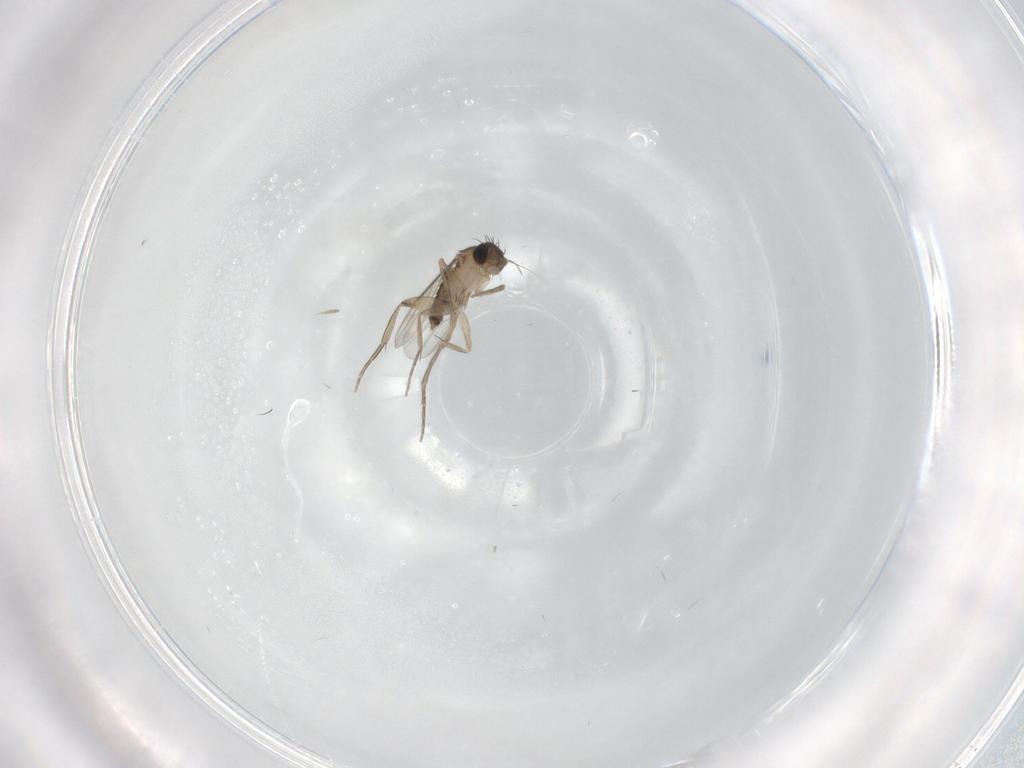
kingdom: Animalia
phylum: Arthropoda
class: Insecta
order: Diptera
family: Phoridae
